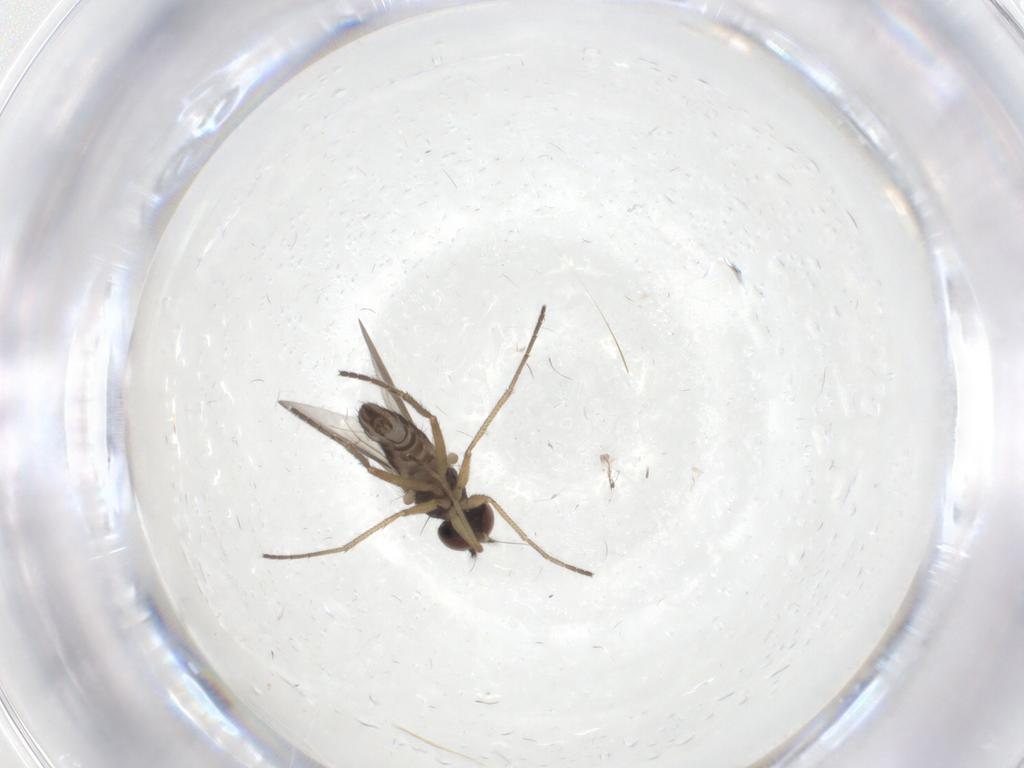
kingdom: Animalia
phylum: Arthropoda
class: Insecta
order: Diptera
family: Dolichopodidae
